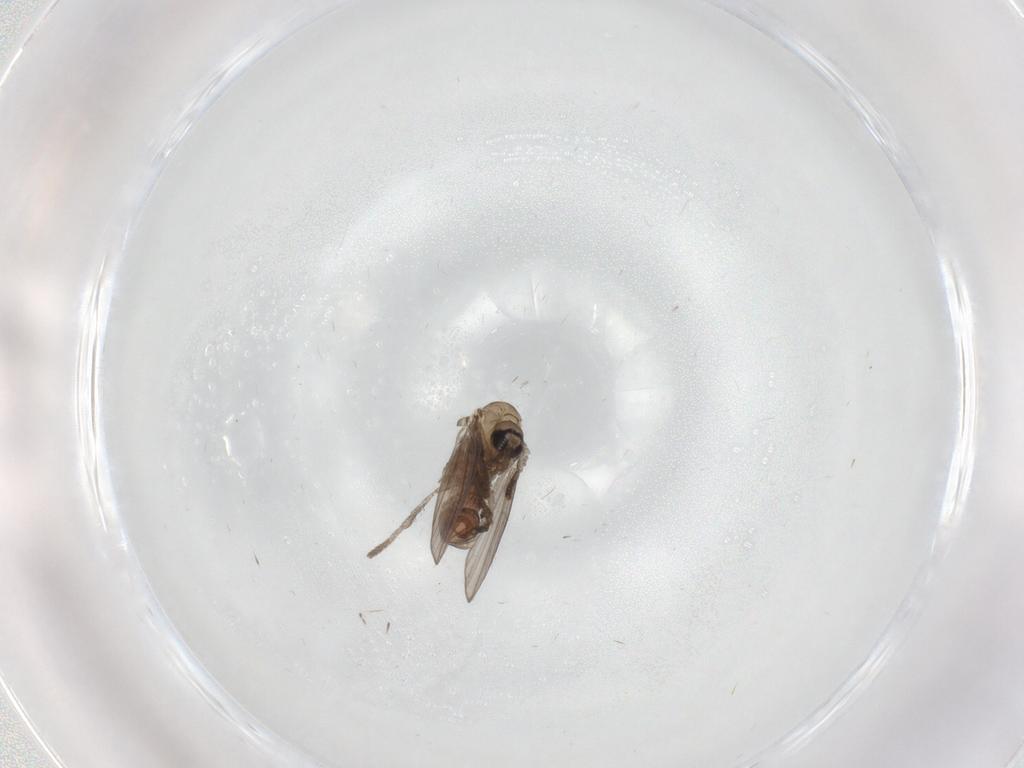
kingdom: Animalia
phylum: Arthropoda
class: Insecta
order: Diptera
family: Psychodidae
